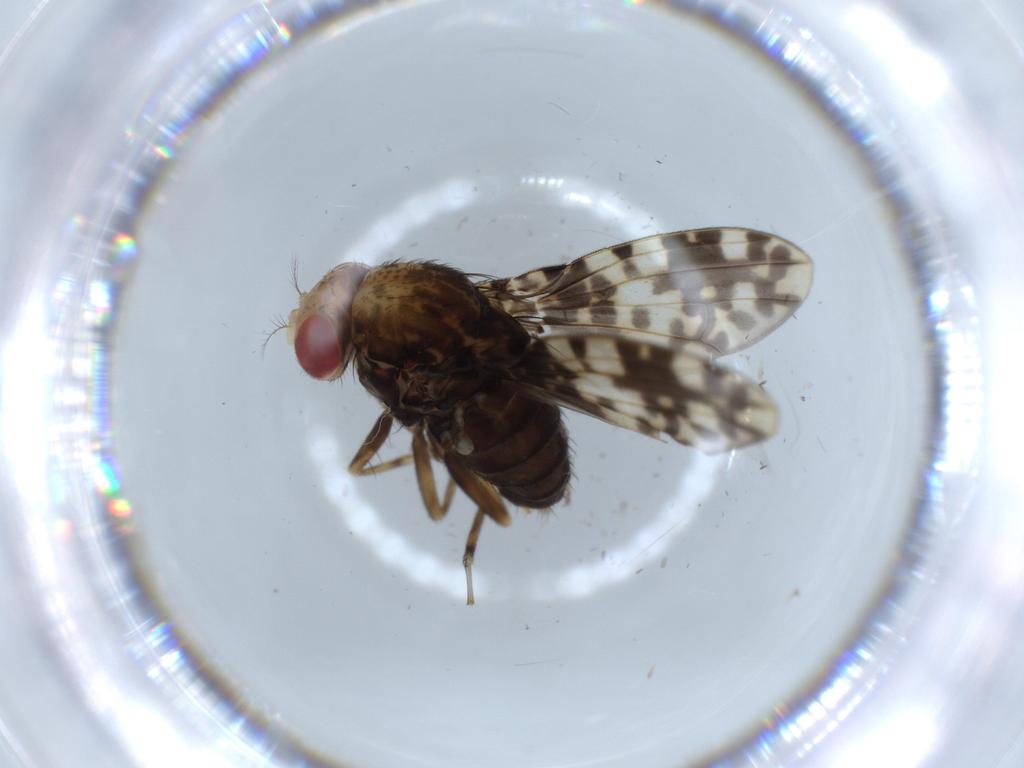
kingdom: Animalia
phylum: Arthropoda
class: Insecta
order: Diptera
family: Drosophilidae
